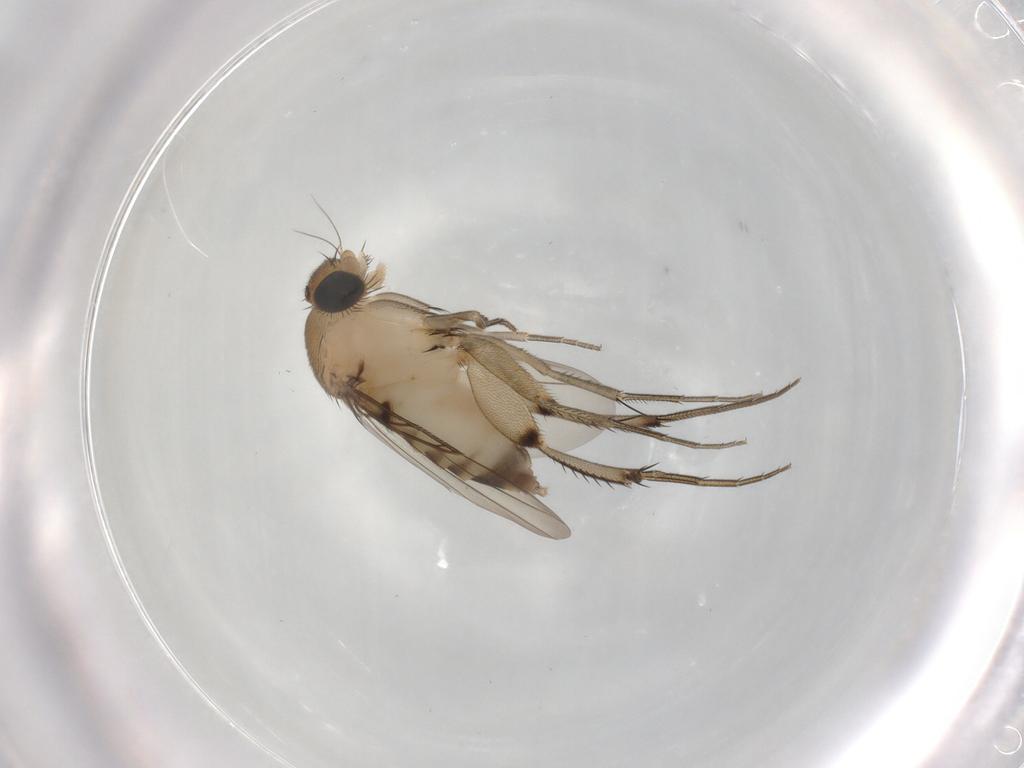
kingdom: Animalia
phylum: Arthropoda
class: Insecta
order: Diptera
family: Phoridae
